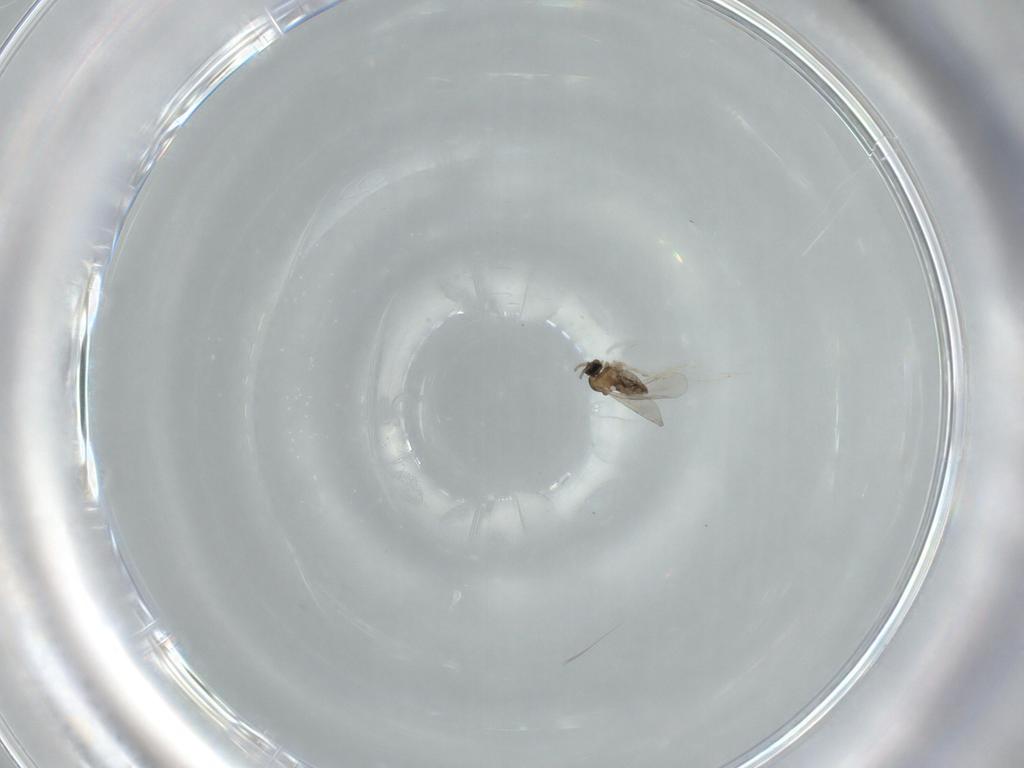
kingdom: Animalia
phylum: Arthropoda
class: Insecta
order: Diptera
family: Cecidomyiidae
